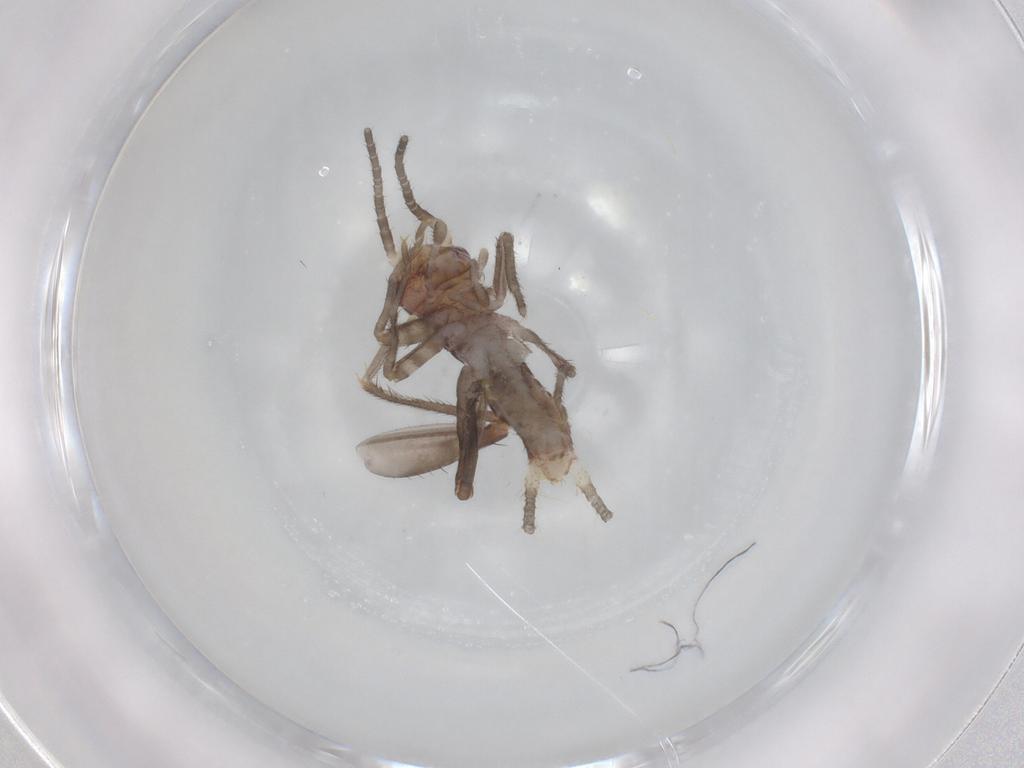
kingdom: Animalia
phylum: Arthropoda
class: Insecta
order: Orthoptera
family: Gryllidae
